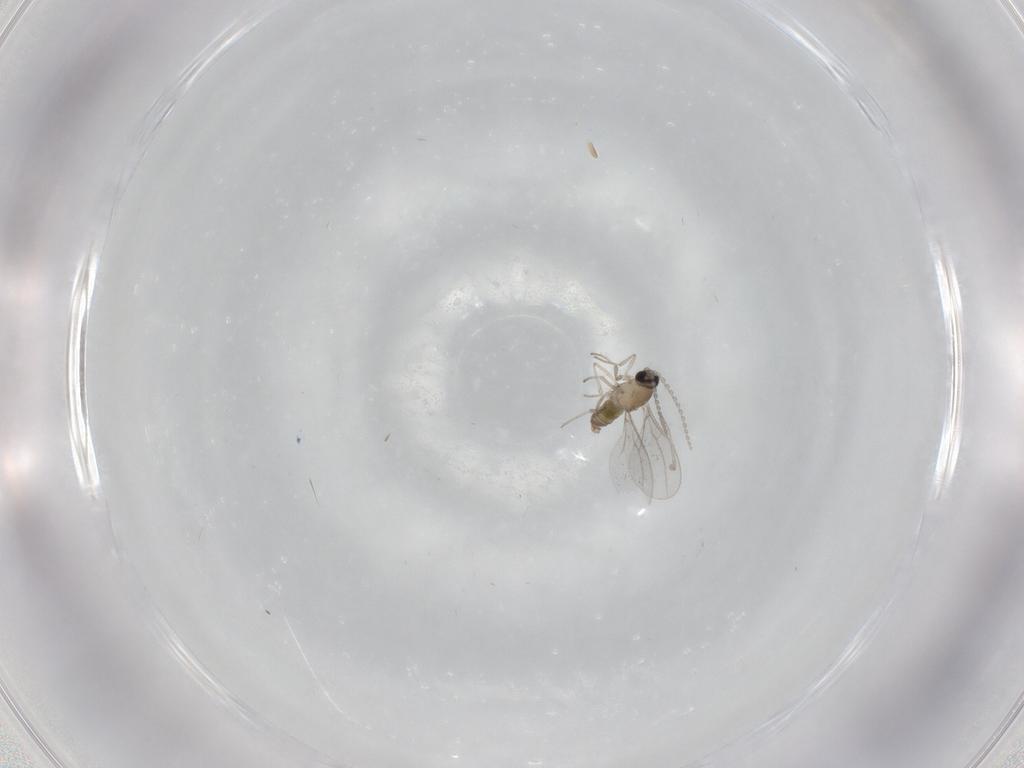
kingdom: Animalia
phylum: Arthropoda
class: Insecta
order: Diptera
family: Cecidomyiidae
